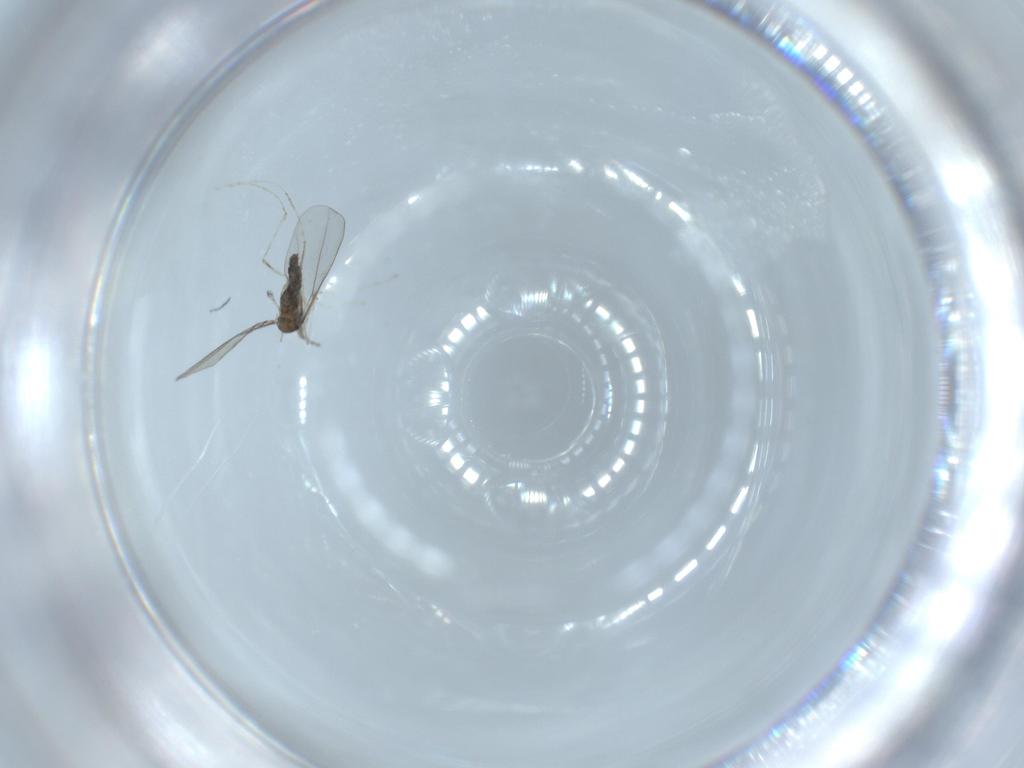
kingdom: Animalia
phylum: Arthropoda
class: Insecta
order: Diptera
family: Cecidomyiidae
